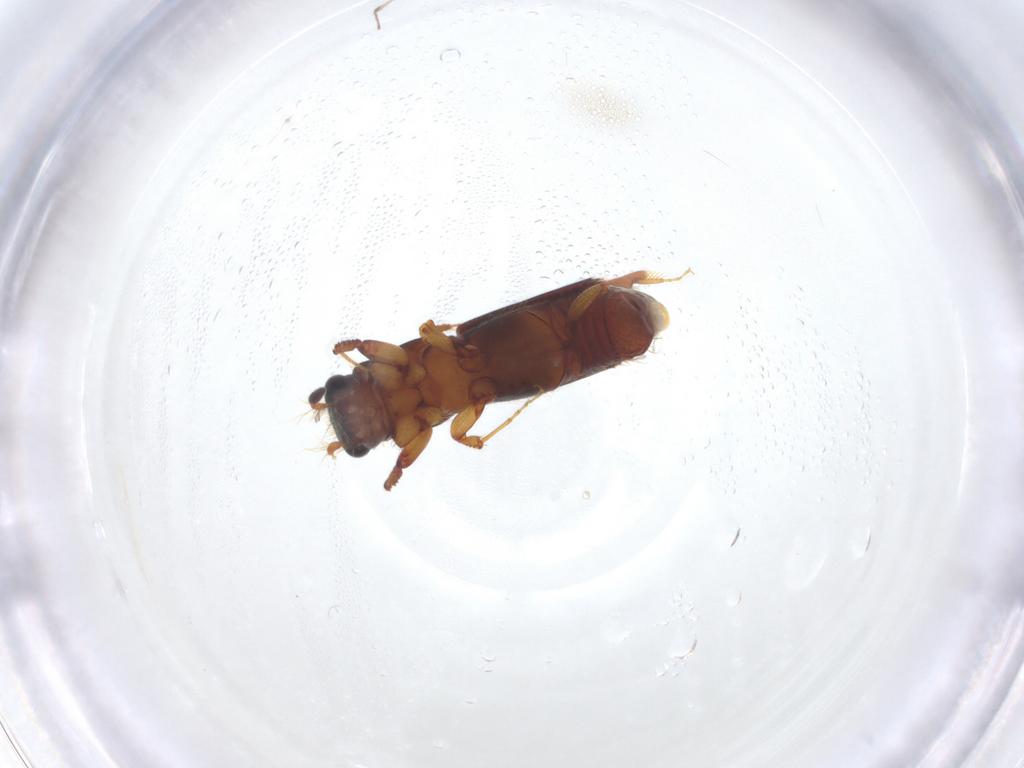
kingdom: Animalia
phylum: Arthropoda
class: Insecta
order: Coleoptera
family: Curculionidae
